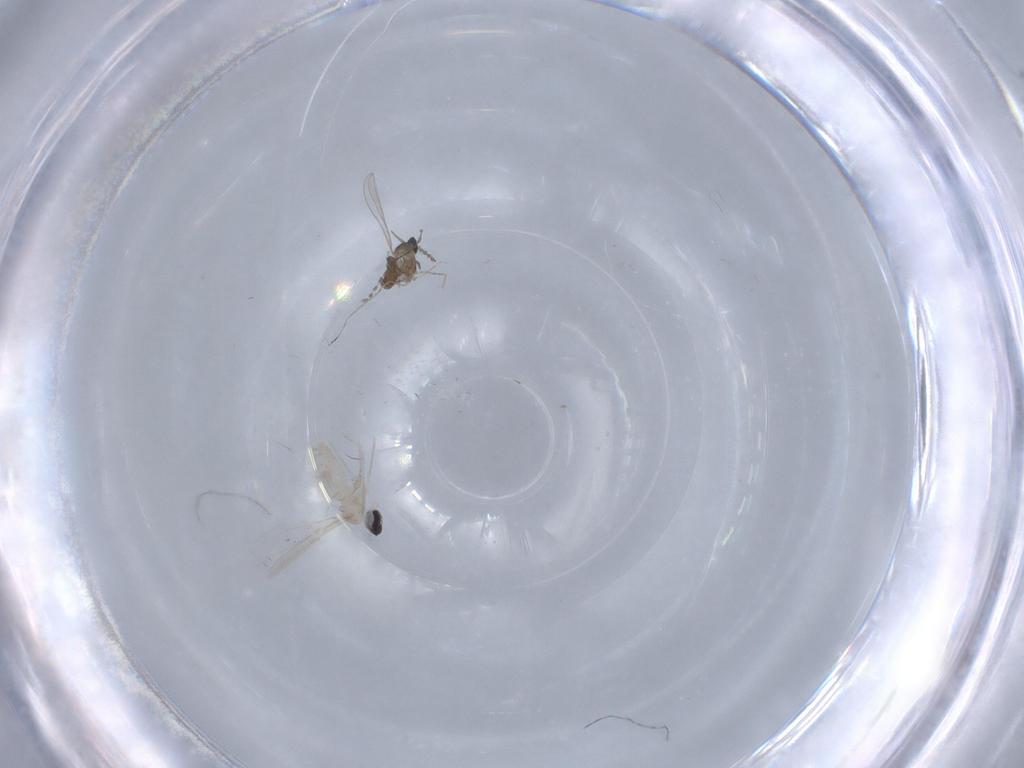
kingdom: Animalia
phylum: Arthropoda
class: Insecta
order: Diptera
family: Cecidomyiidae
